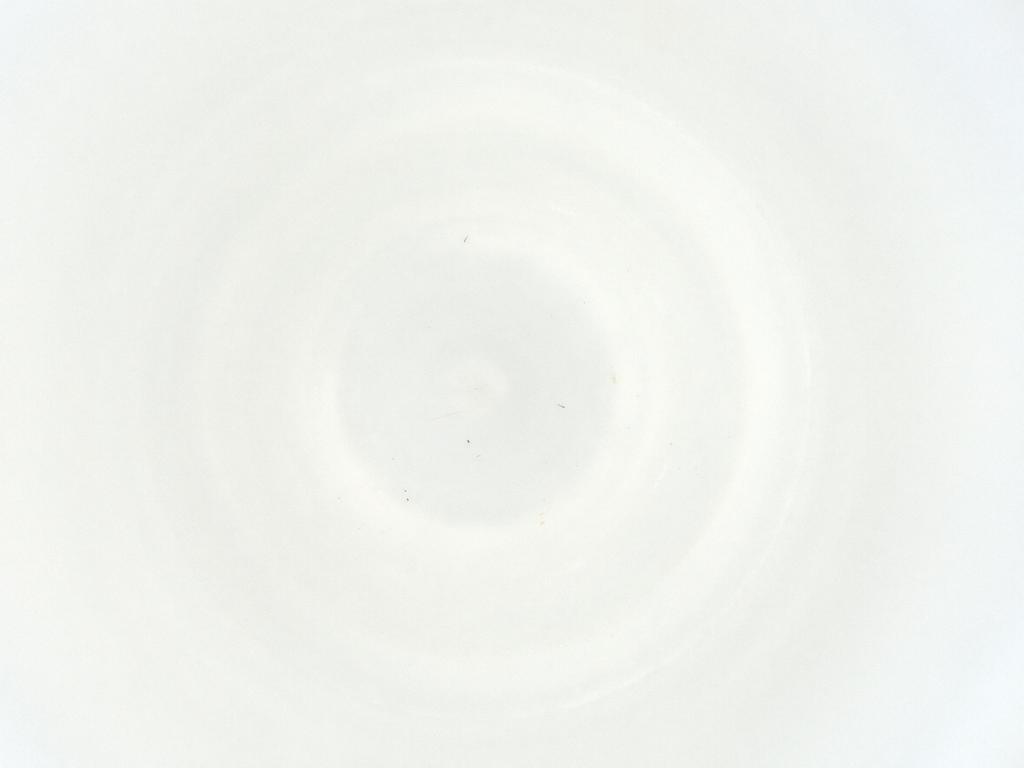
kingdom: Animalia
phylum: Arthropoda
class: Insecta
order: Hemiptera
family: Cicadellidae
